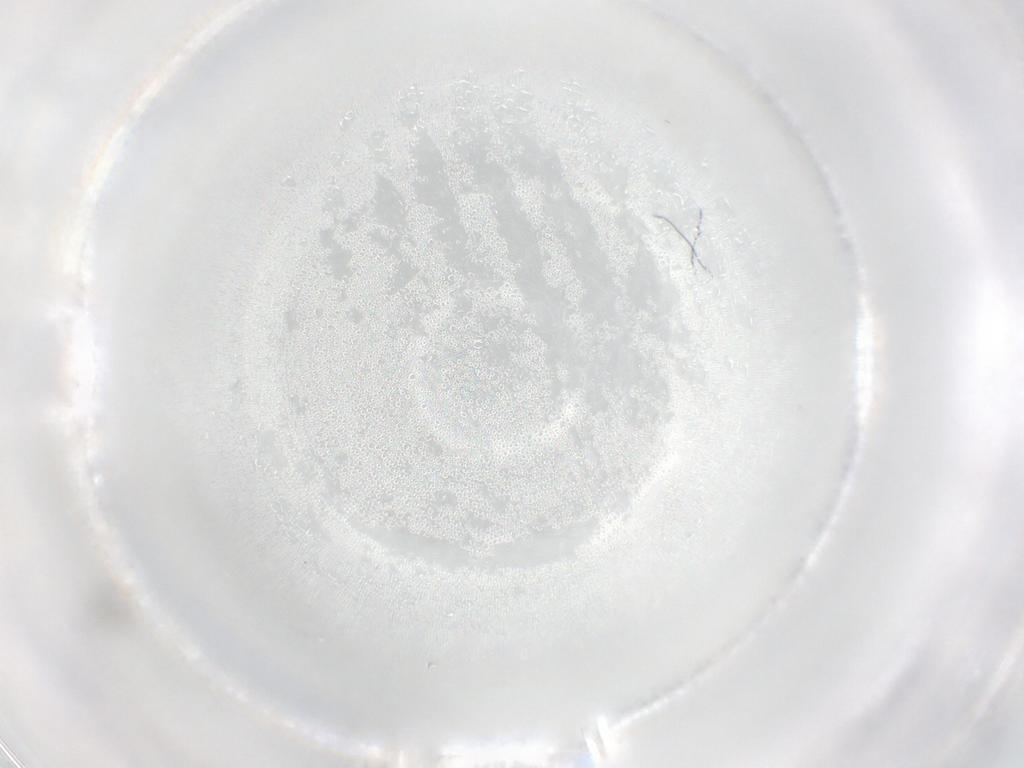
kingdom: Animalia
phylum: Arthropoda
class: Insecta
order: Diptera
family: Cecidomyiidae
